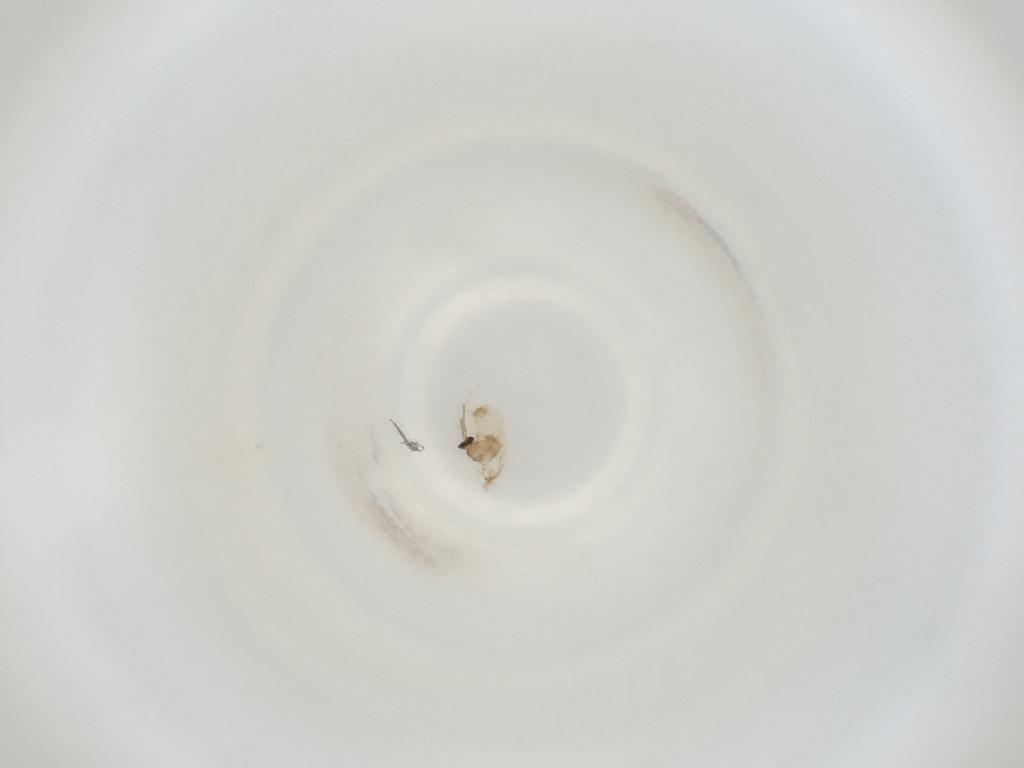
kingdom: Animalia
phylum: Arthropoda
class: Insecta
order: Diptera
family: Cecidomyiidae
